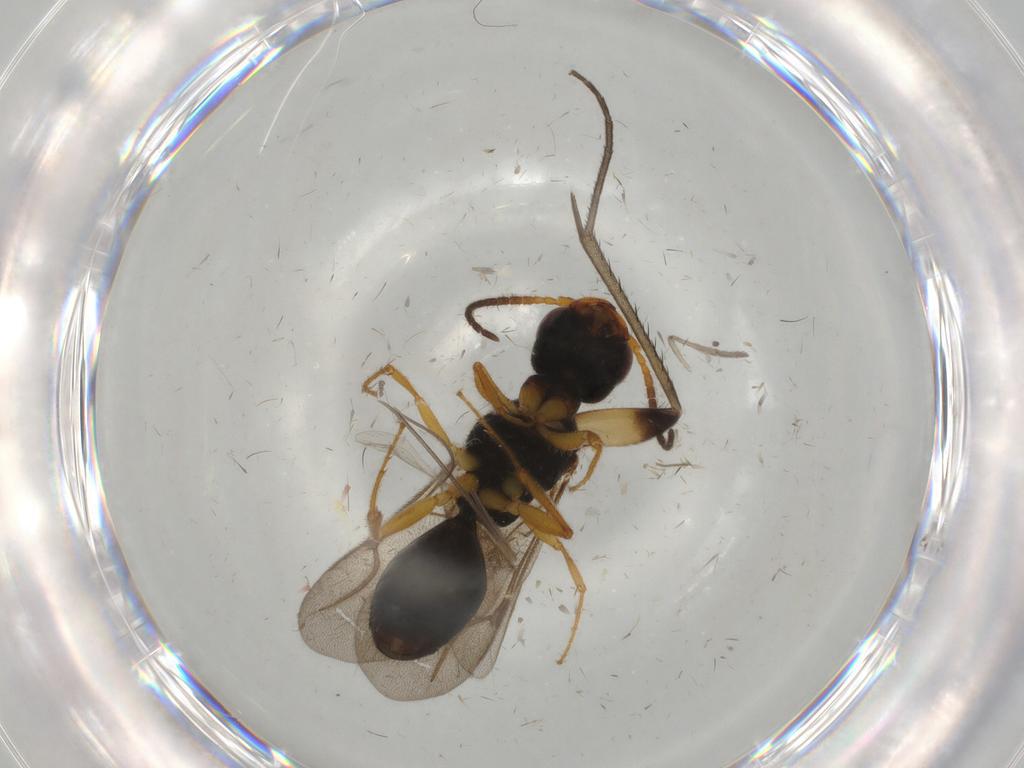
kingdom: Animalia
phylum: Arthropoda
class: Insecta
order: Hymenoptera
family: Bethylidae
